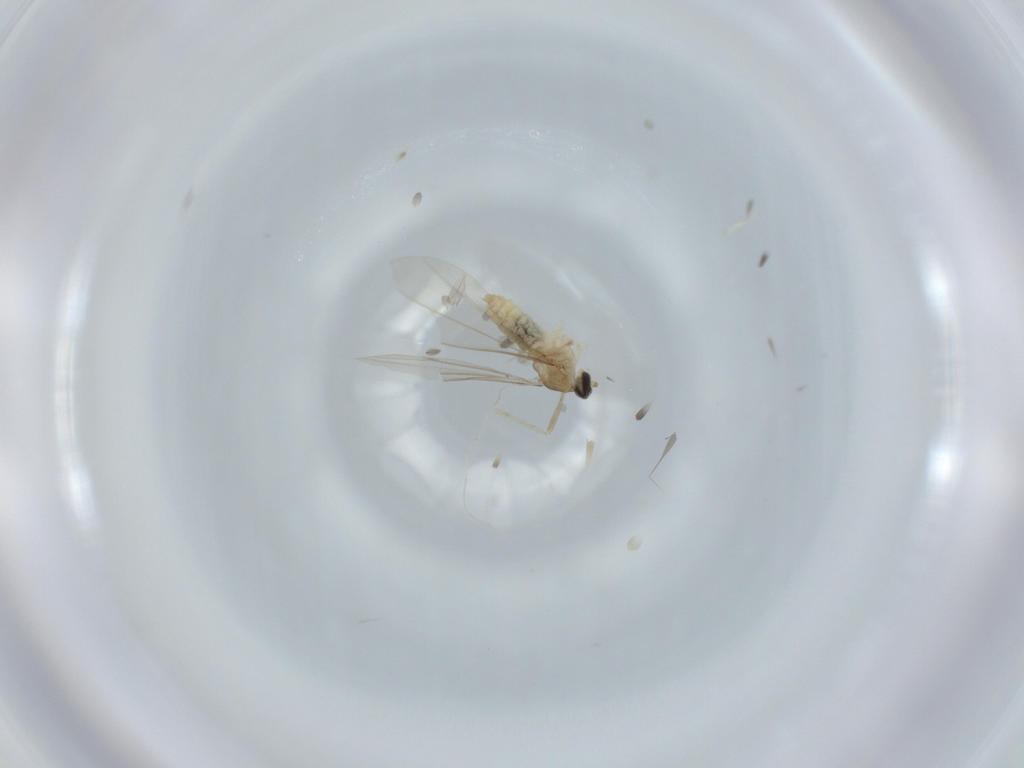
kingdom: Animalia
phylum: Arthropoda
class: Insecta
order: Diptera
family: Cecidomyiidae
